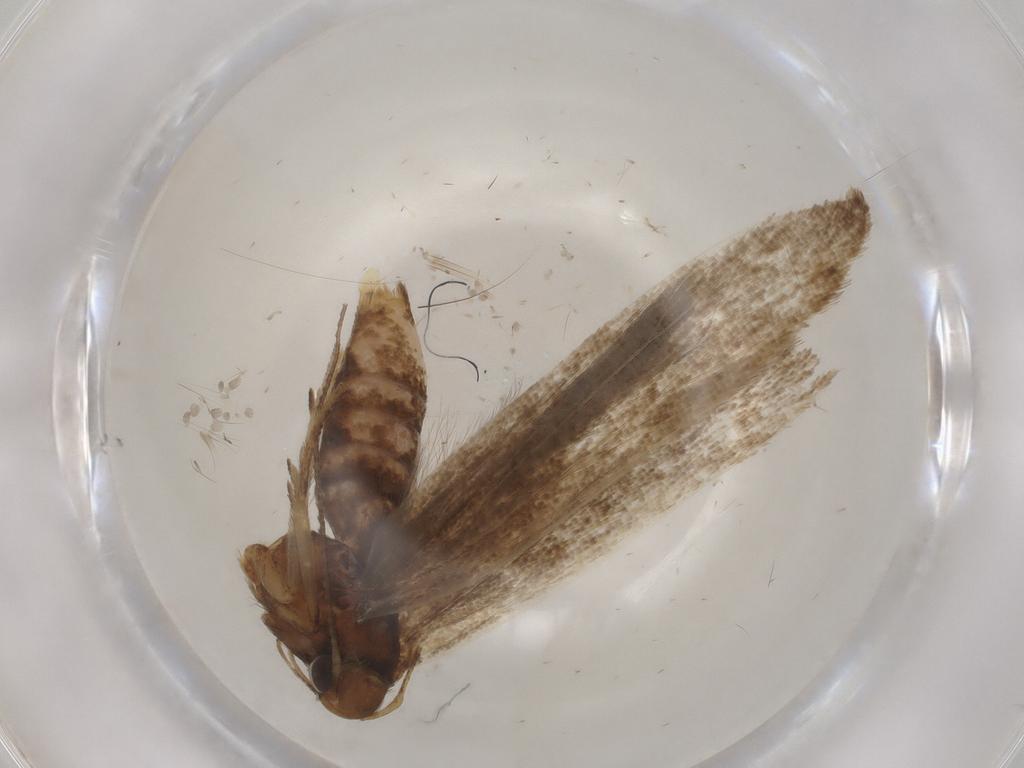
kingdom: Animalia
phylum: Arthropoda
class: Insecta
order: Lepidoptera
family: Gelechiidae
